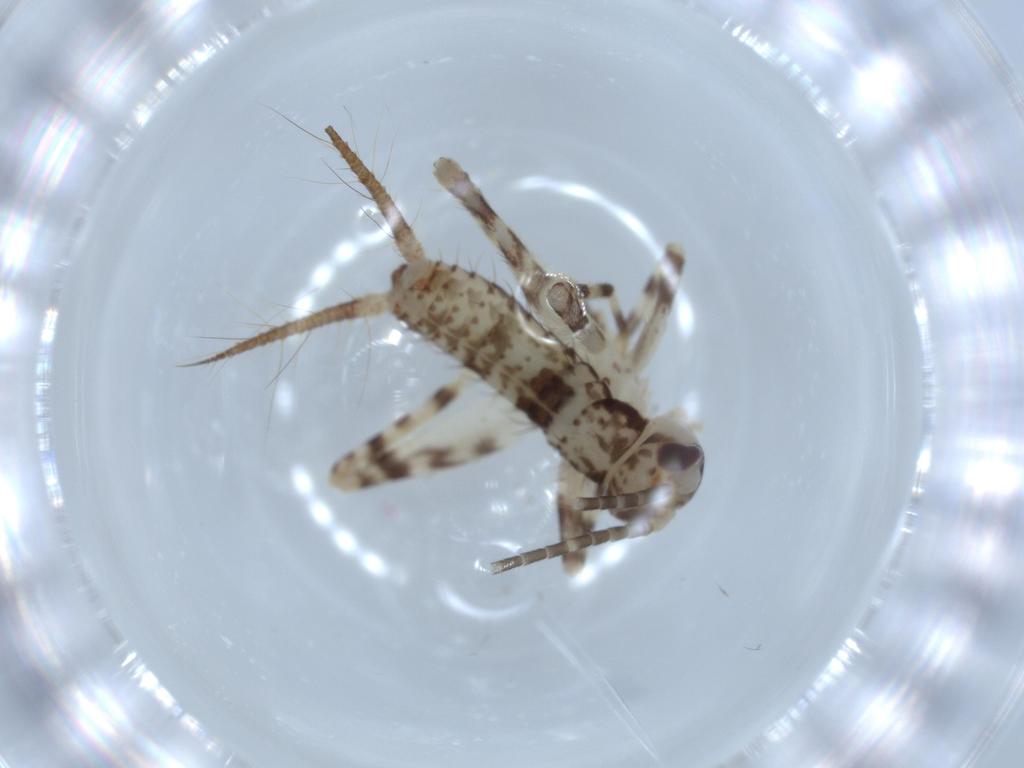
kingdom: Animalia
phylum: Arthropoda
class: Insecta
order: Orthoptera
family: Gryllidae
